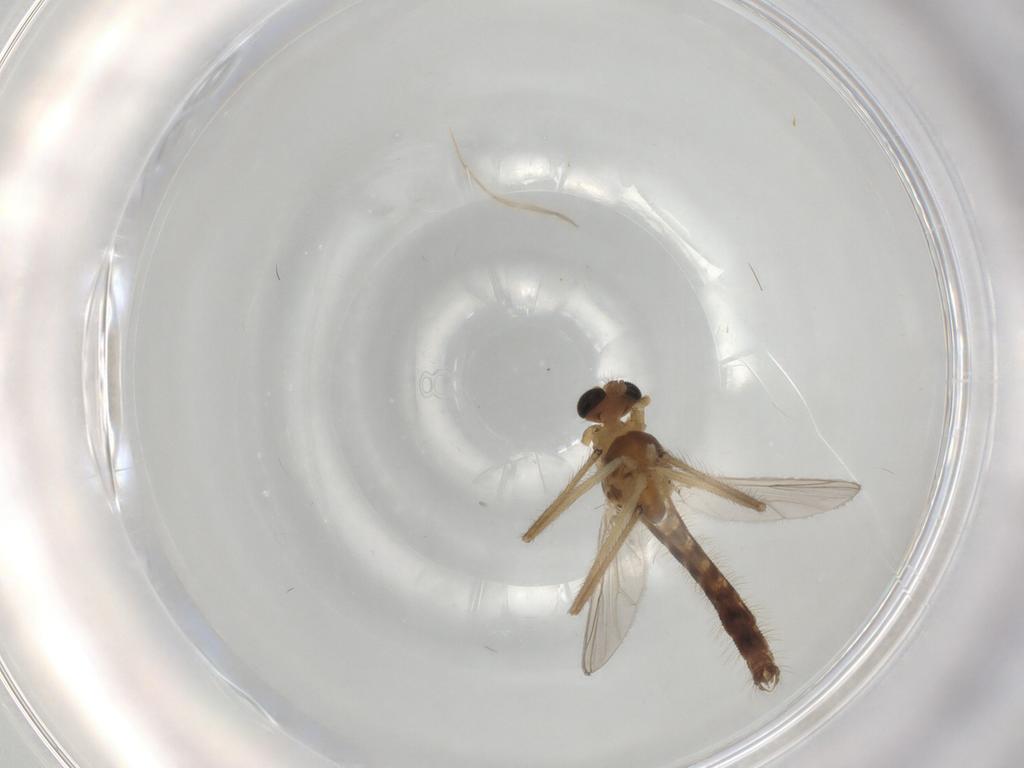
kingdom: Animalia
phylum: Arthropoda
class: Insecta
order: Diptera
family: Chironomidae
